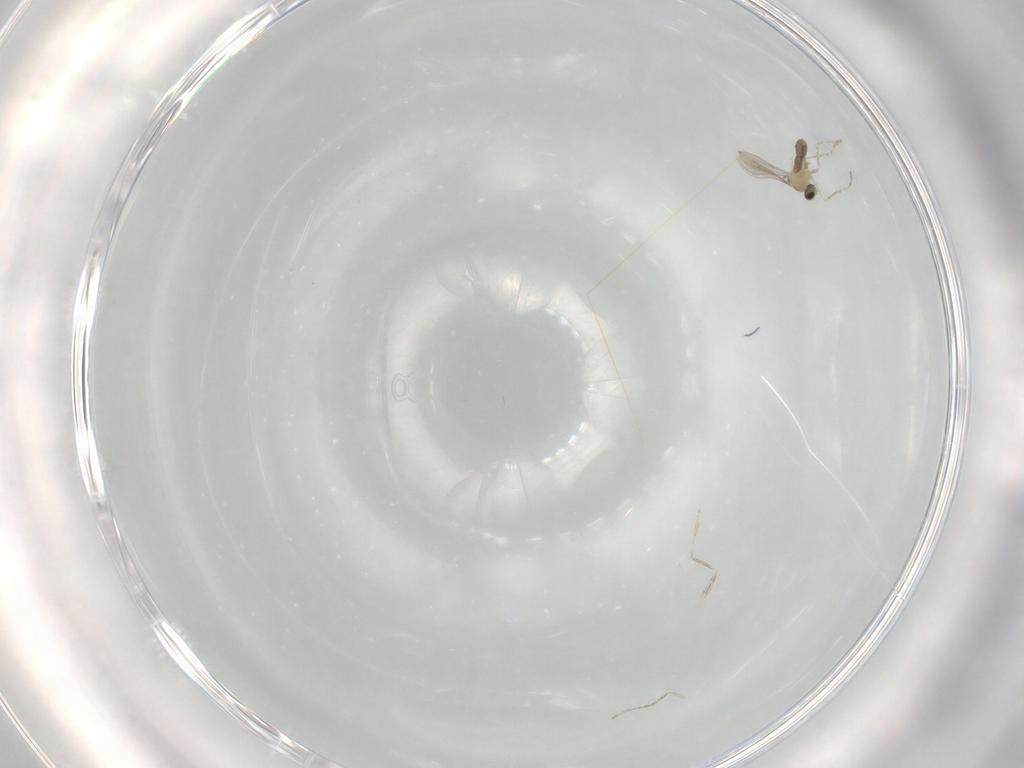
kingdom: Animalia
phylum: Arthropoda
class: Insecta
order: Diptera
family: Cecidomyiidae
